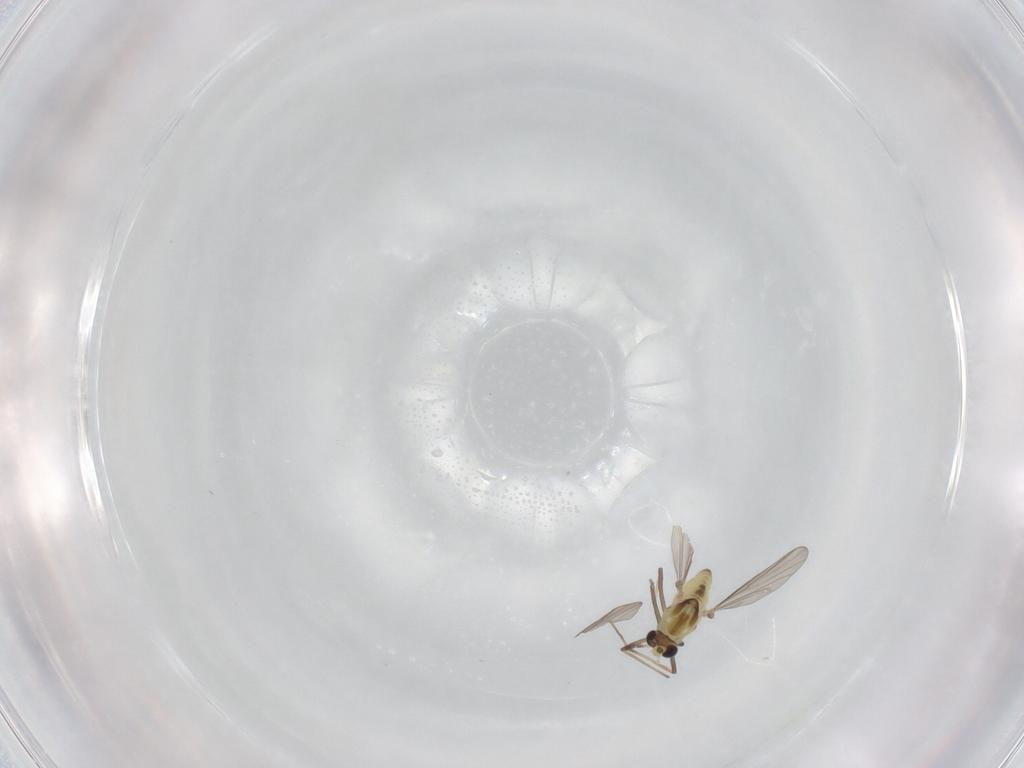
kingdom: Animalia
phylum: Arthropoda
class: Insecta
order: Diptera
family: Chironomidae
